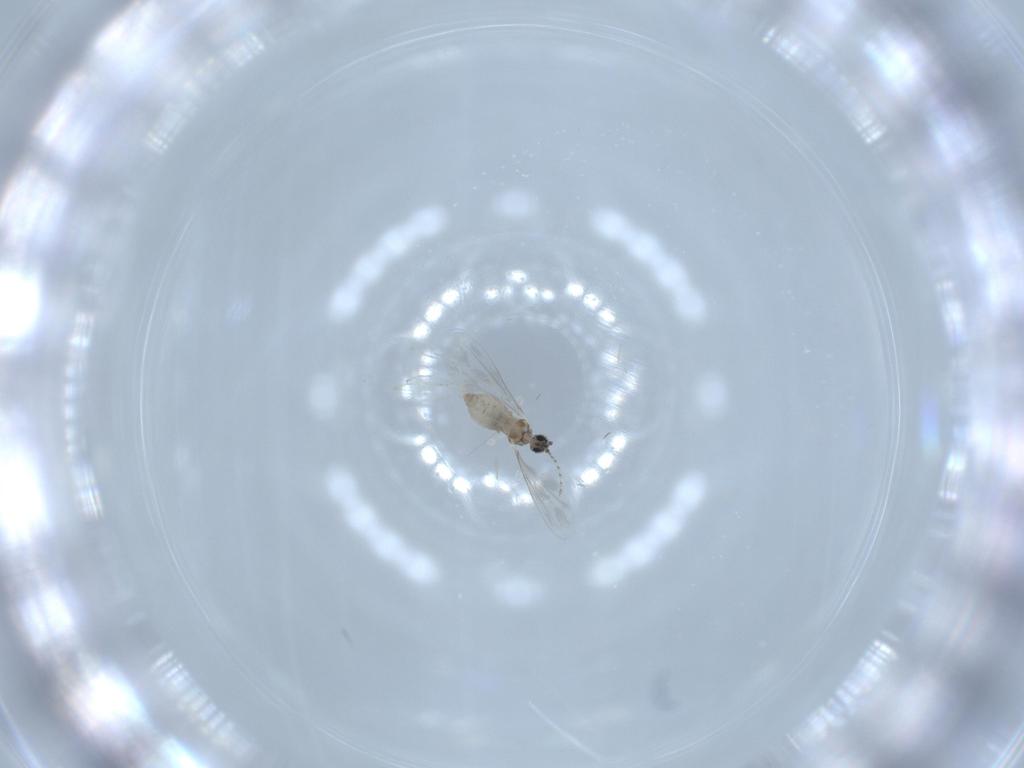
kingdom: Animalia
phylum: Arthropoda
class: Insecta
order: Diptera
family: Cecidomyiidae
